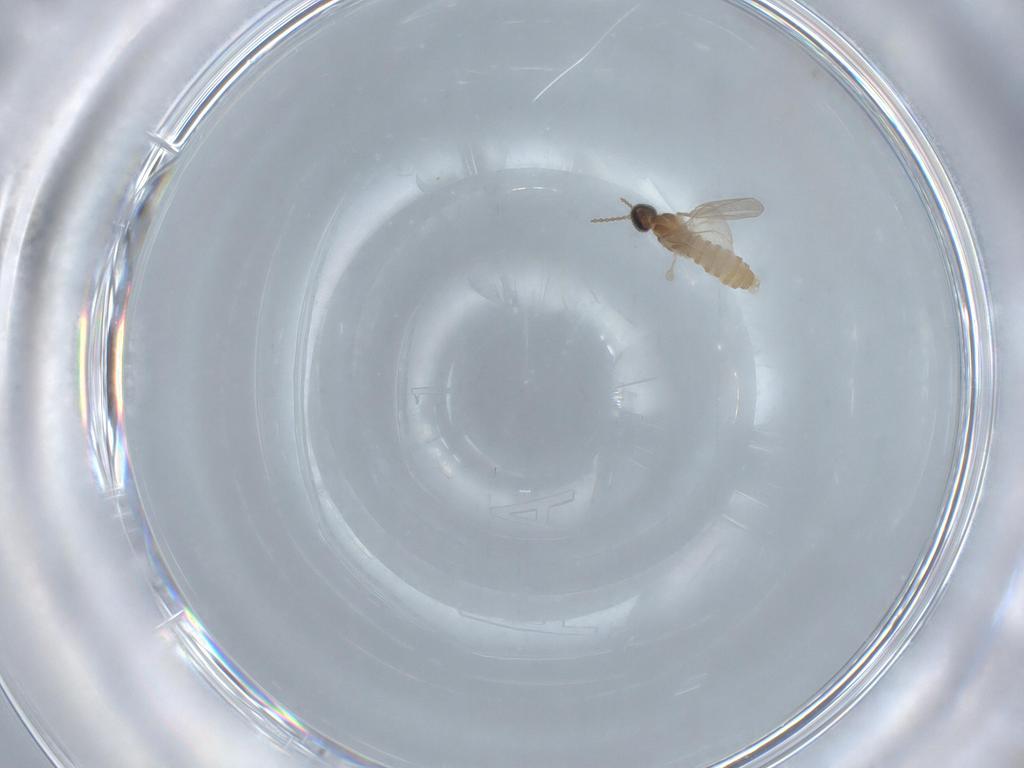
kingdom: Animalia
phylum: Arthropoda
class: Insecta
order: Diptera
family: Cecidomyiidae
